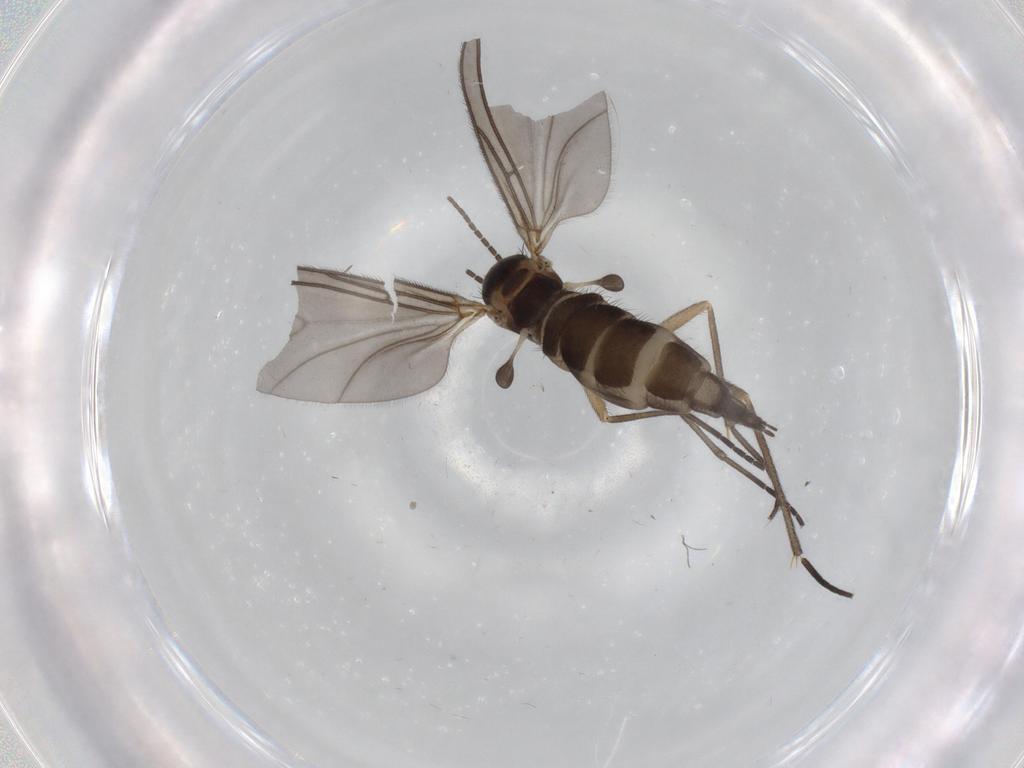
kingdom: Animalia
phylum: Arthropoda
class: Insecta
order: Diptera
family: Sciaridae
